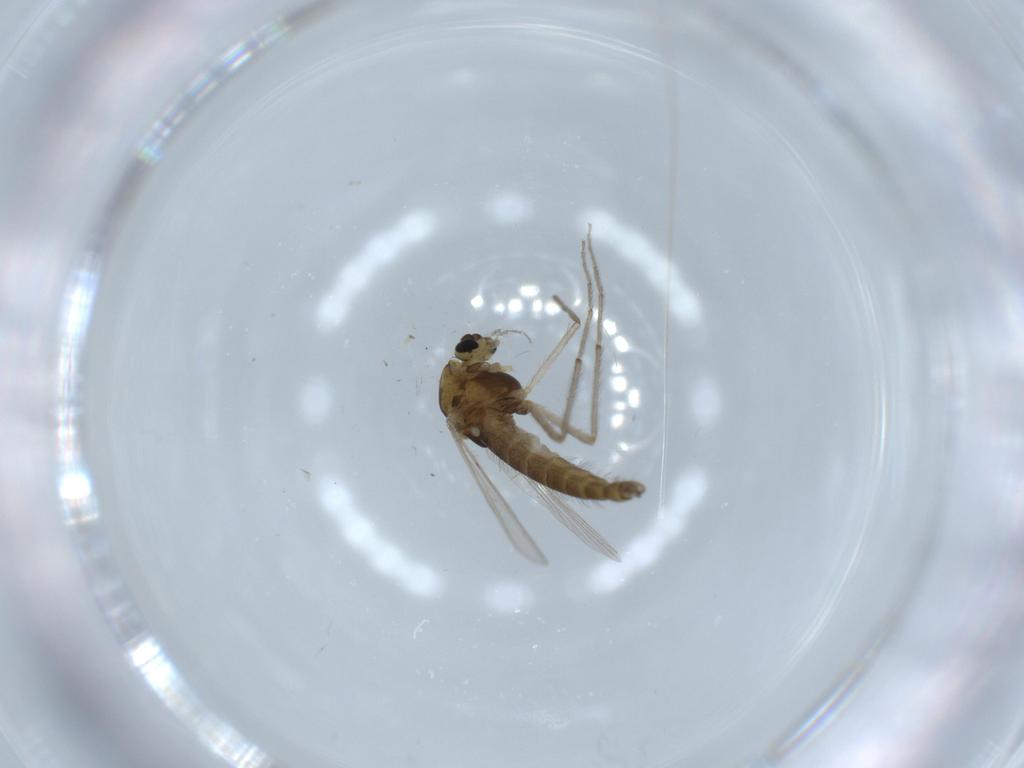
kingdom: Animalia
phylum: Arthropoda
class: Insecta
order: Diptera
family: Chironomidae
